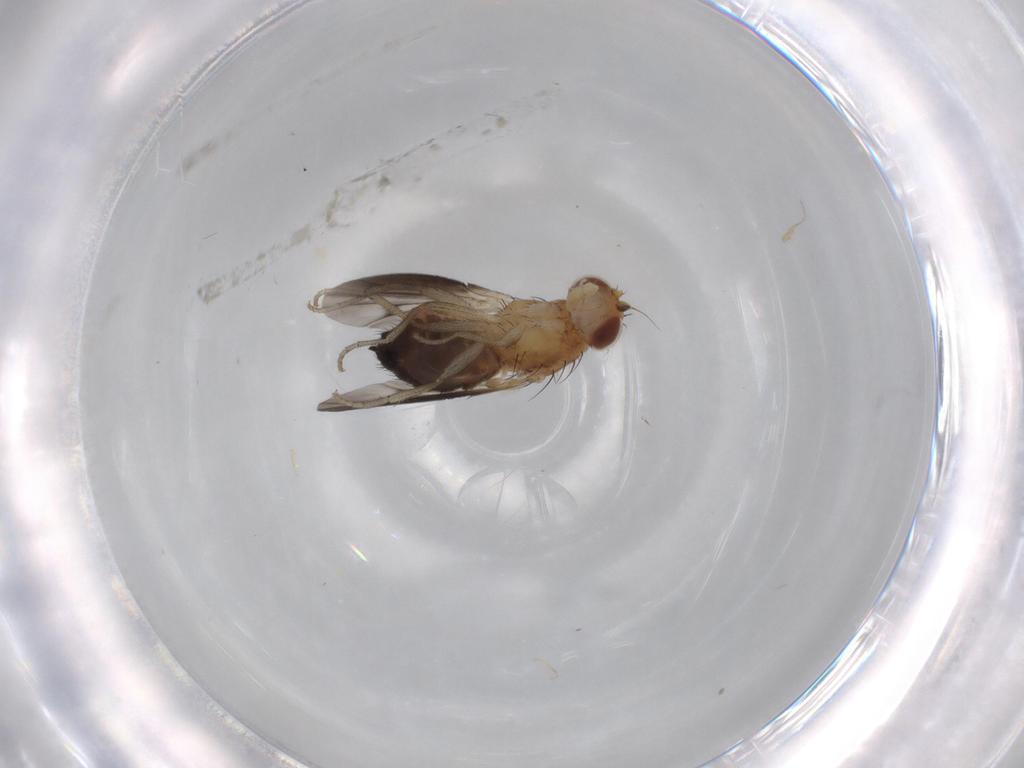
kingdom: Animalia
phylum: Arthropoda
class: Insecta
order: Diptera
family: Heleomyzidae
